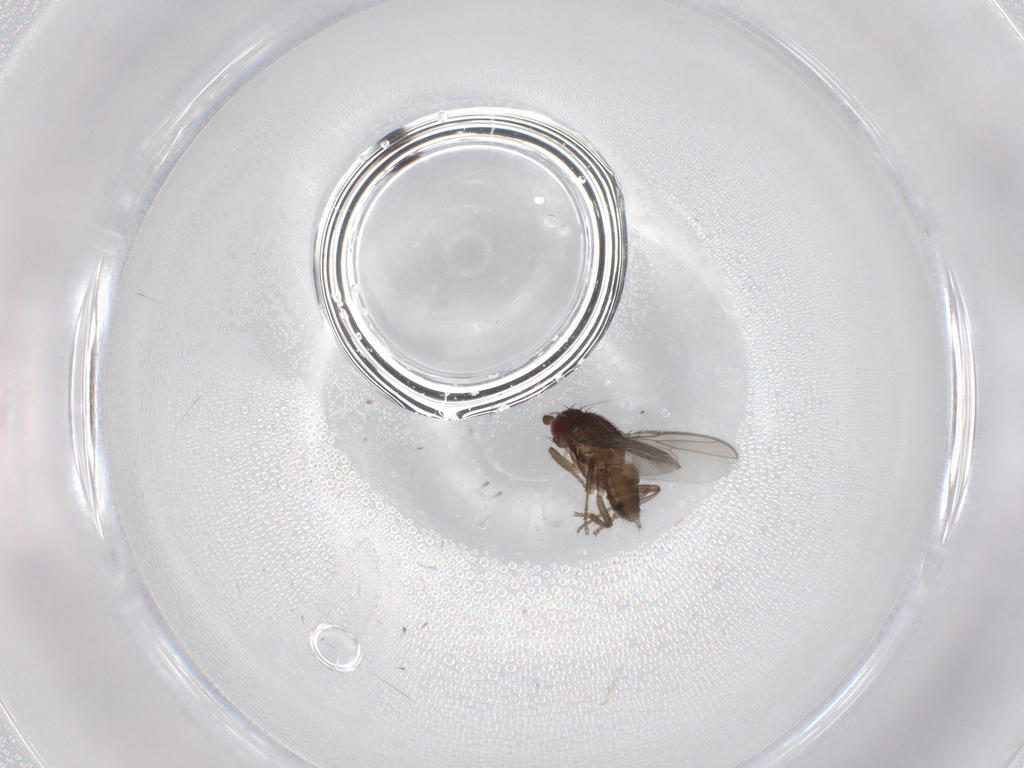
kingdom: Animalia
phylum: Arthropoda
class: Insecta
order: Diptera
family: Sphaeroceridae
